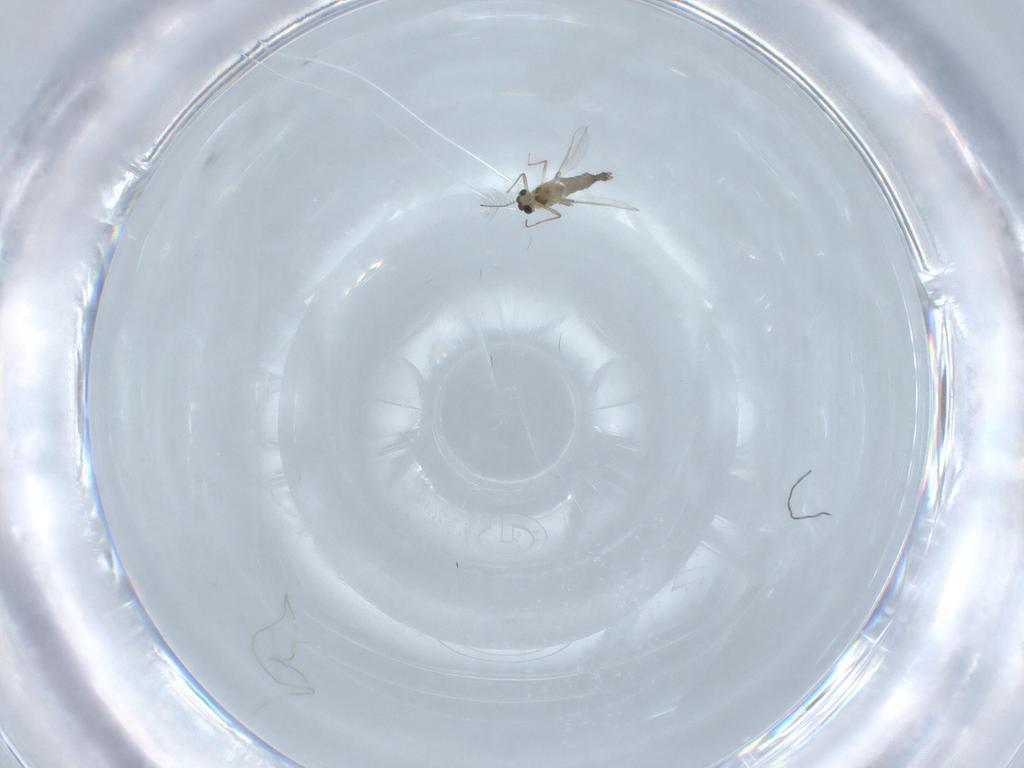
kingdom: Animalia
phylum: Arthropoda
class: Insecta
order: Diptera
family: Chironomidae
